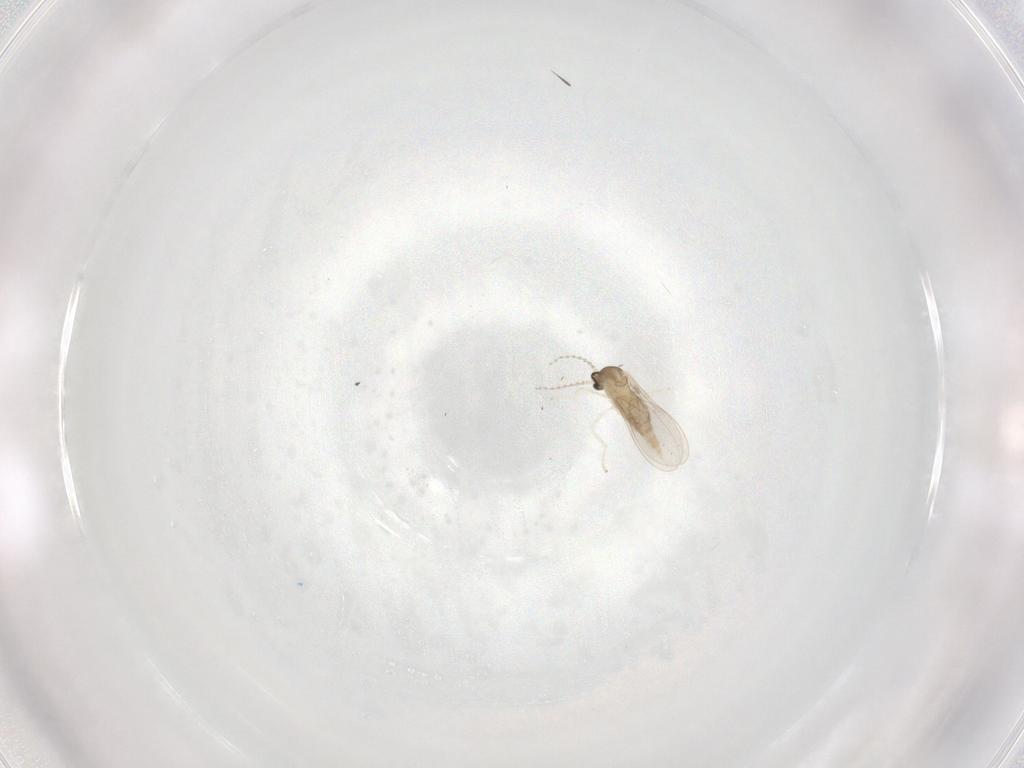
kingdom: Animalia
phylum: Arthropoda
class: Insecta
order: Diptera
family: Cecidomyiidae
